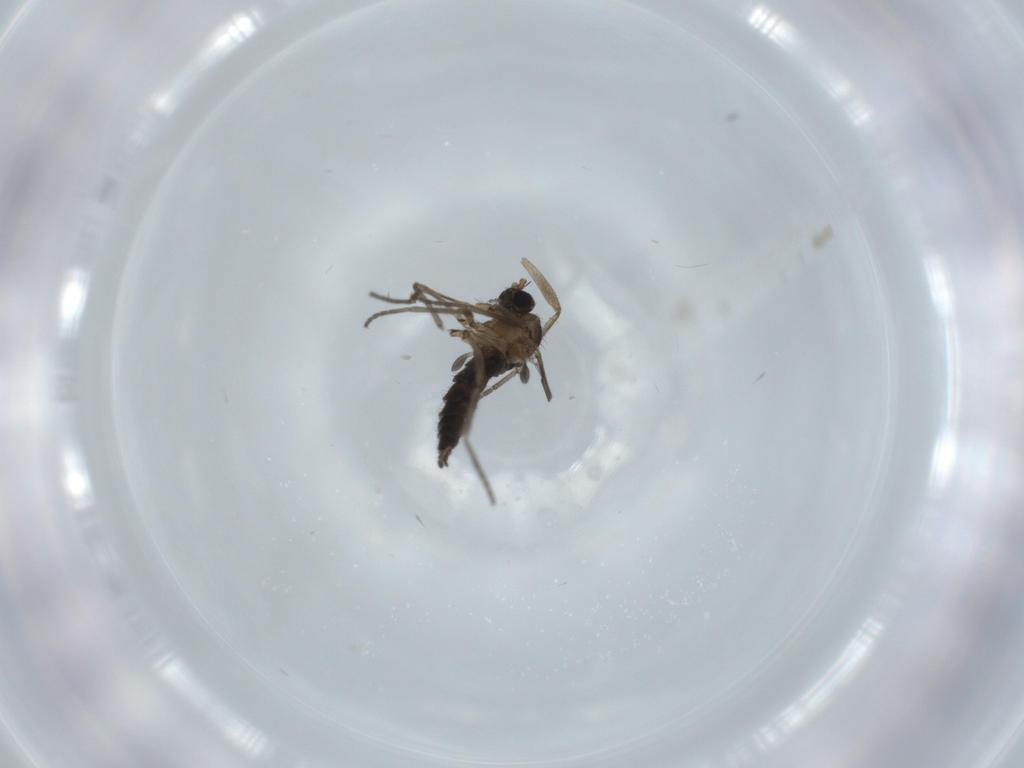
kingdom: Animalia
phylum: Arthropoda
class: Insecta
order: Diptera
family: Sciaridae
